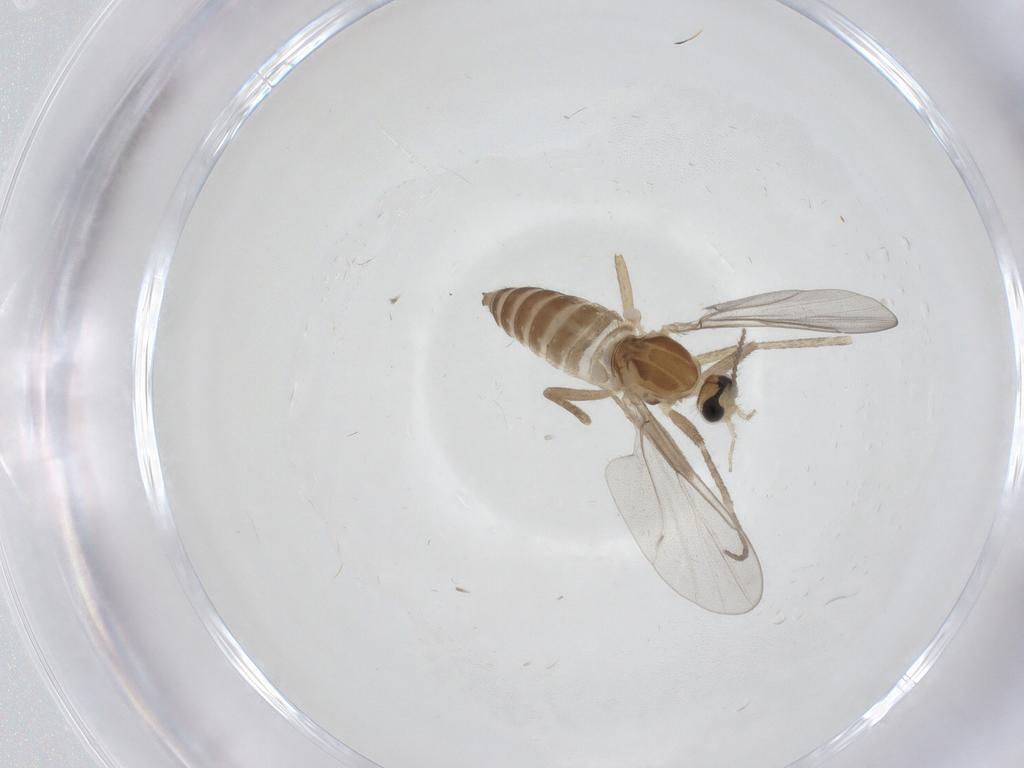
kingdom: Animalia
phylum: Arthropoda
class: Insecta
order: Diptera
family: Cecidomyiidae
